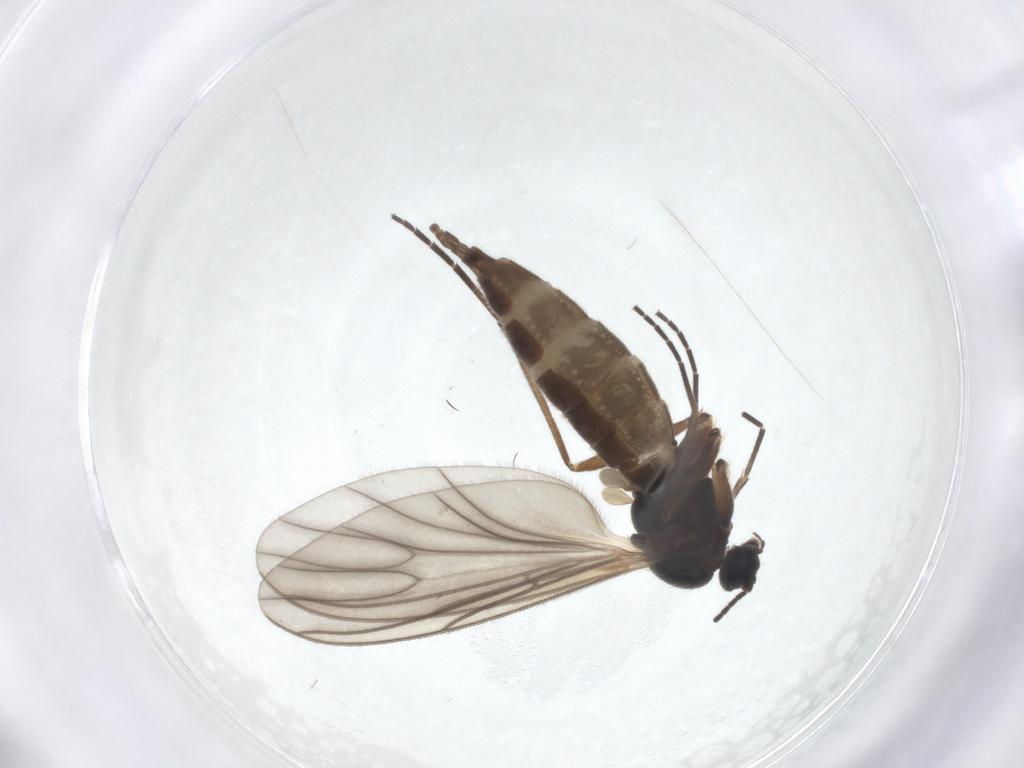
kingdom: Animalia
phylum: Arthropoda
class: Insecta
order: Diptera
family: Sciaridae
